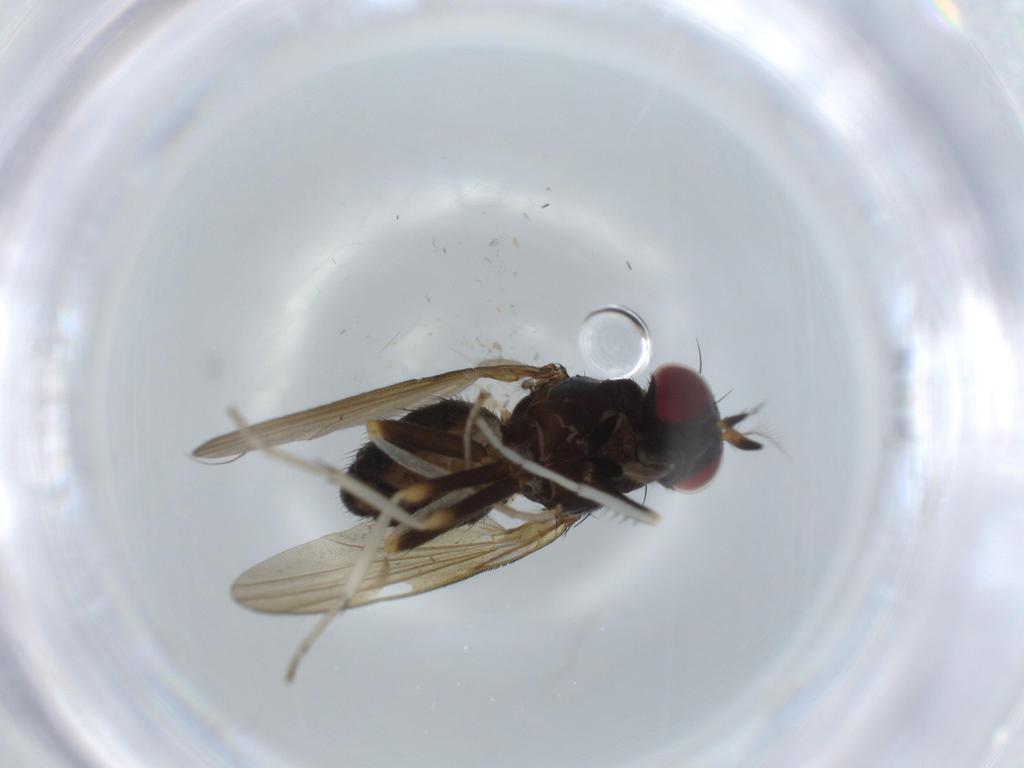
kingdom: Animalia
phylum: Arthropoda
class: Insecta
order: Diptera
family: Lauxaniidae
